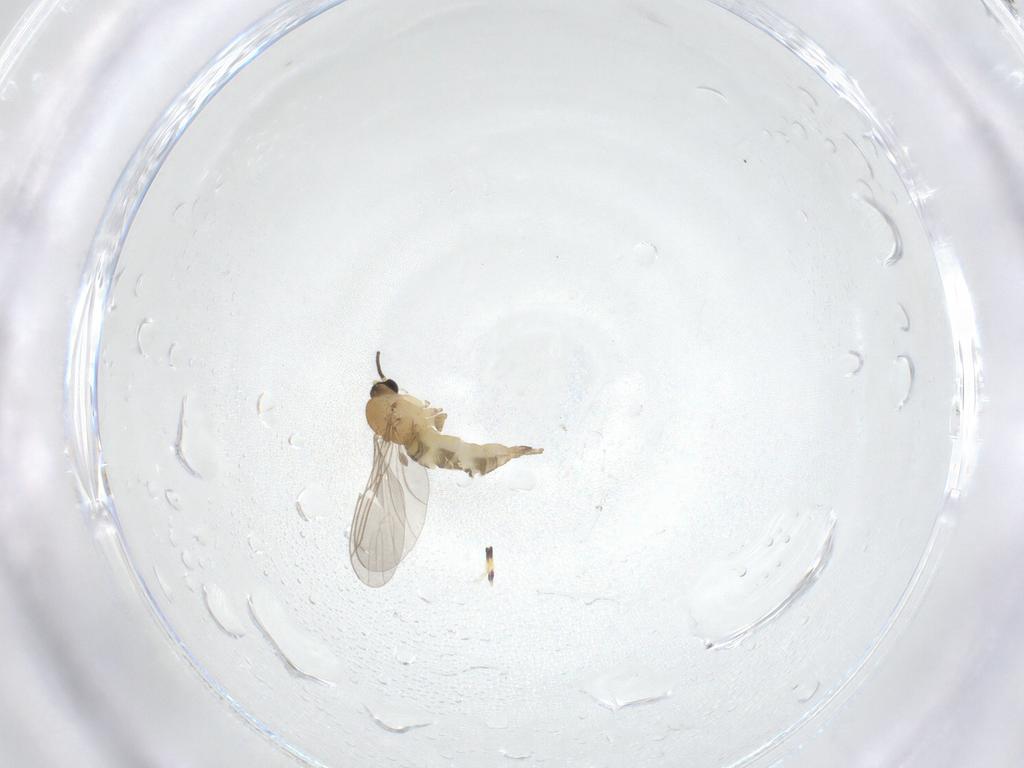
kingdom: Animalia
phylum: Arthropoda
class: Insecta
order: Diptera
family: Sciaridae
